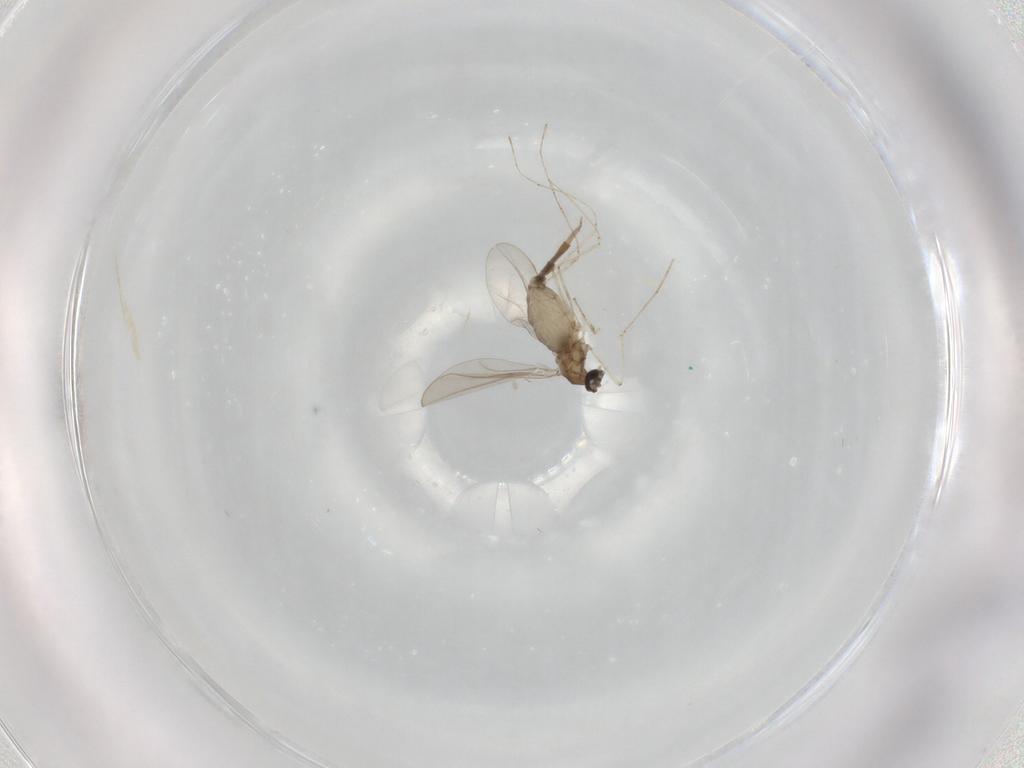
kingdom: Animalia
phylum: Arthropoda
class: Insecta
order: Diptera
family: Cecidomyiidae
